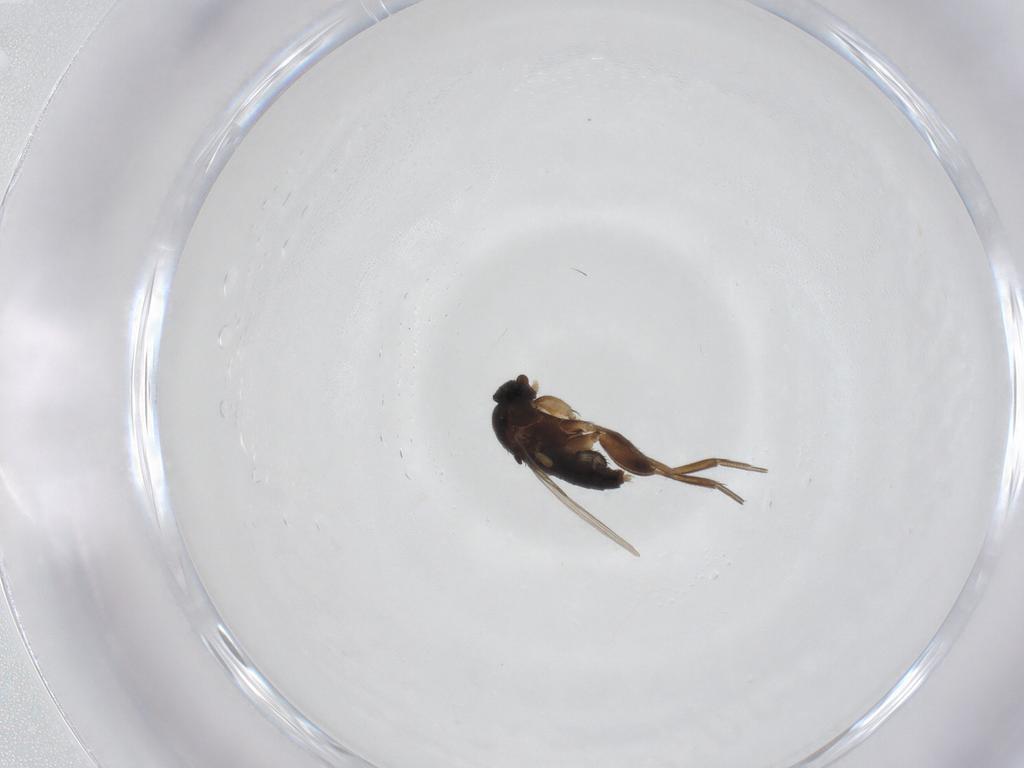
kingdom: Animalia
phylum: Arthropoda
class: Insecta
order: Diptera
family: Phoridae
